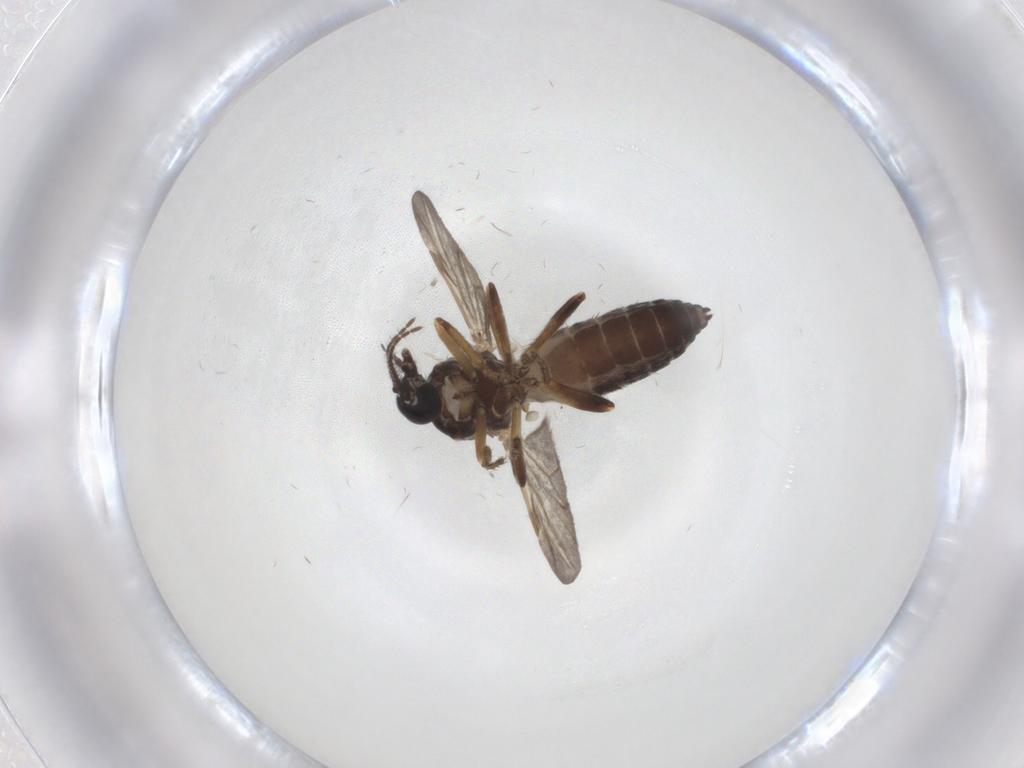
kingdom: Animalia
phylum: Arthropoda
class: Insecta
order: Diptera
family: Ceratopogonidae
